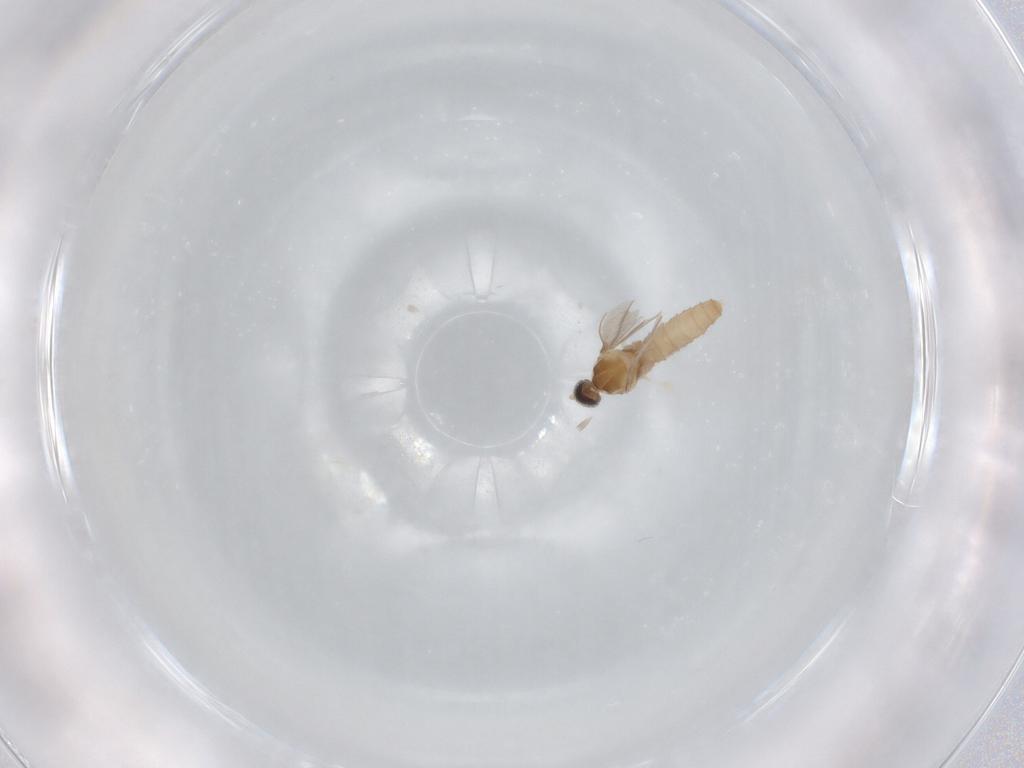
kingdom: Animalia
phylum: Arthropoda
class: Insecta
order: Diptera
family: Cecidomyiidae
